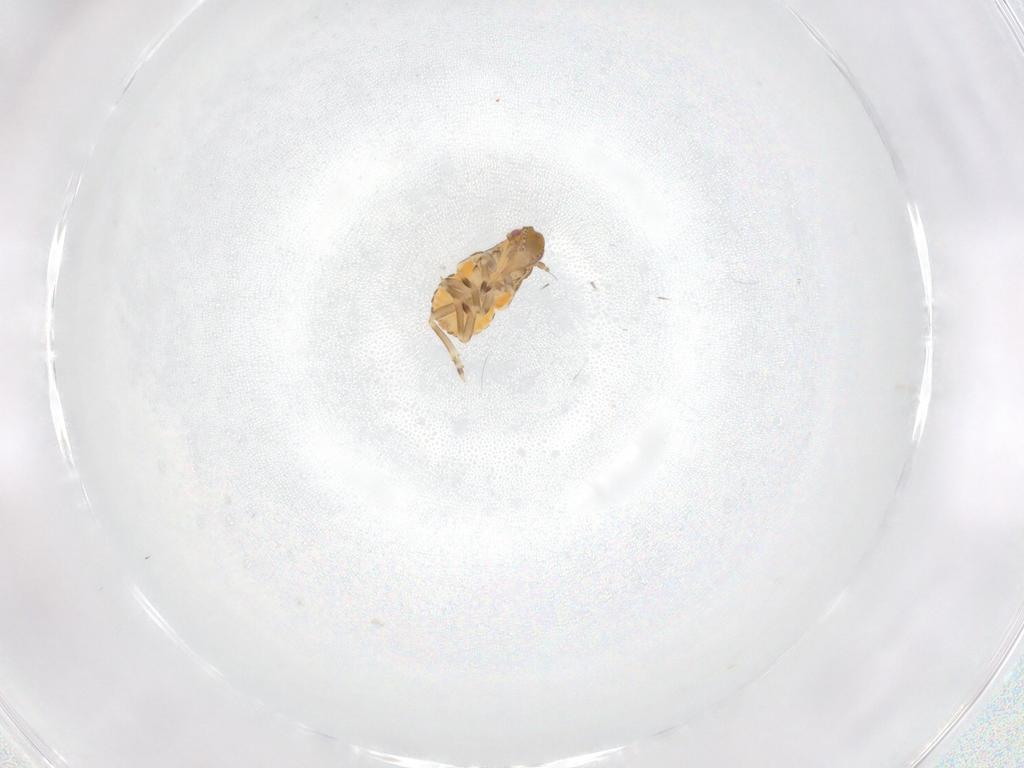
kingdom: Animalia
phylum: Arthropoda
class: Insecta
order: Hemiptera
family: Flatidae
